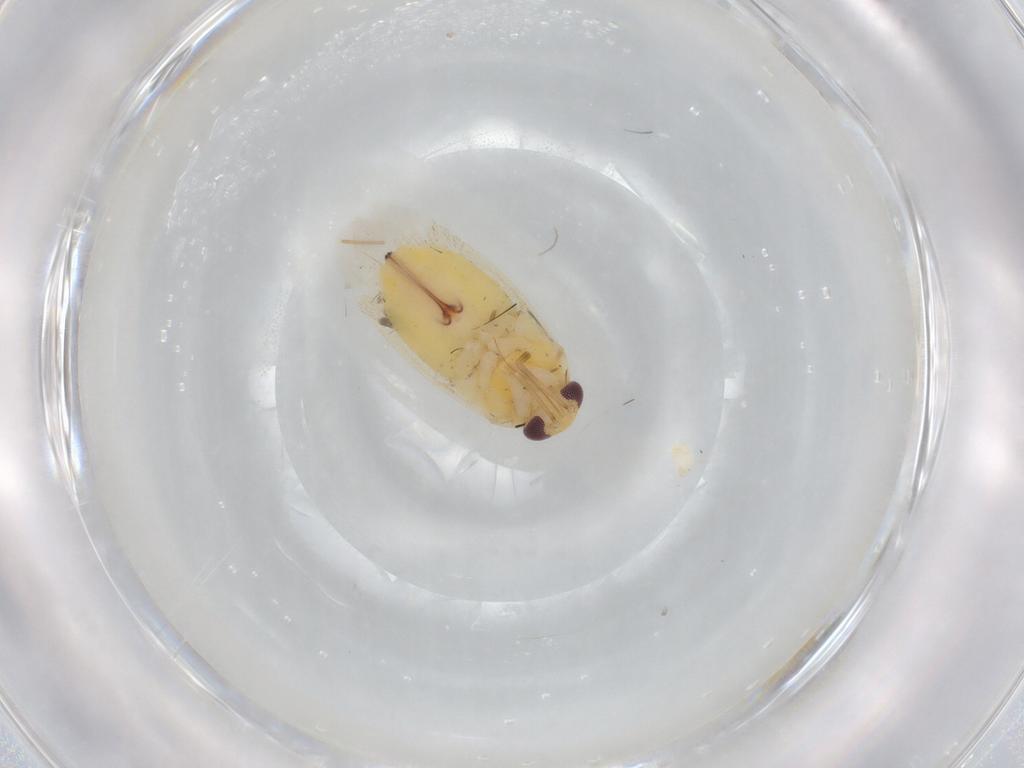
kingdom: Animalia
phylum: Arthropoda
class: Insecta
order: Hemiptera
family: Miridae
